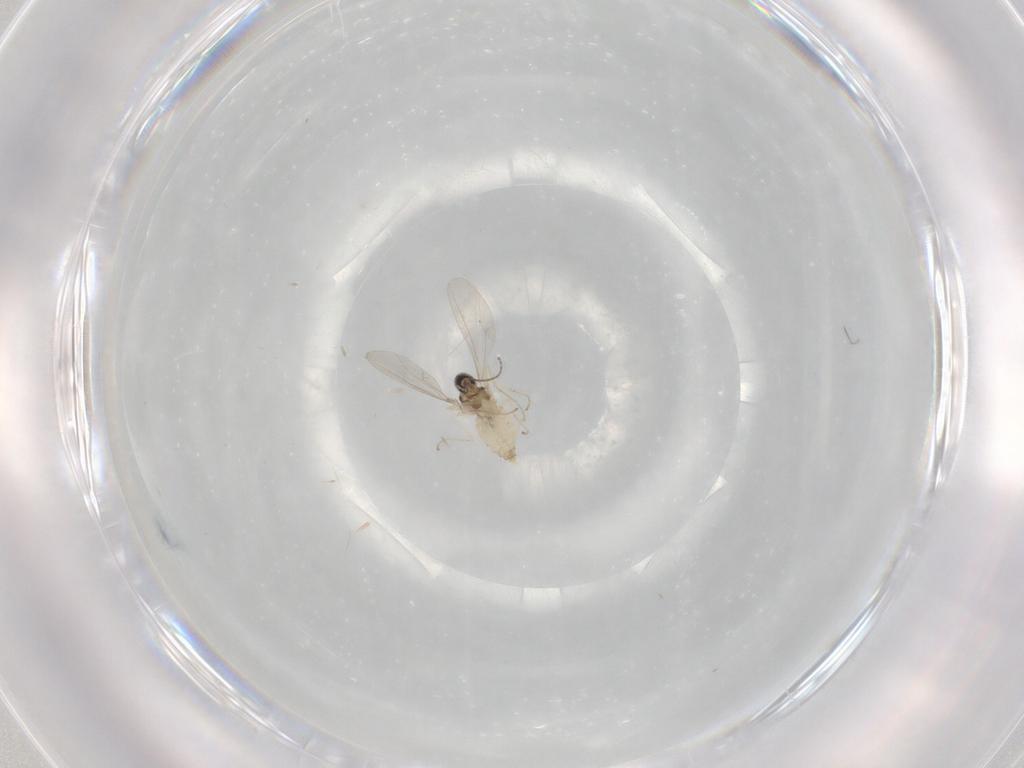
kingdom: Animalia
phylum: Arthropoda
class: Insecta
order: Diptera
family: Cecidomyiidae
